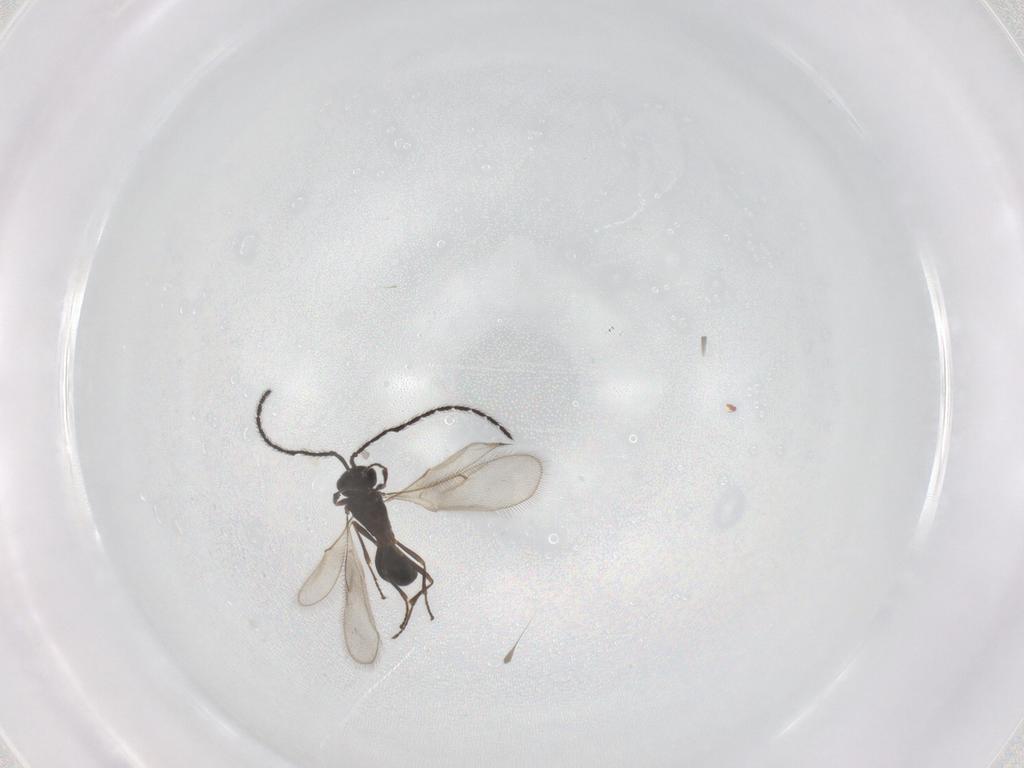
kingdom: Animalia
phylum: Arthropoda
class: Insecta
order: Hymenoptera
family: Scelionidae
